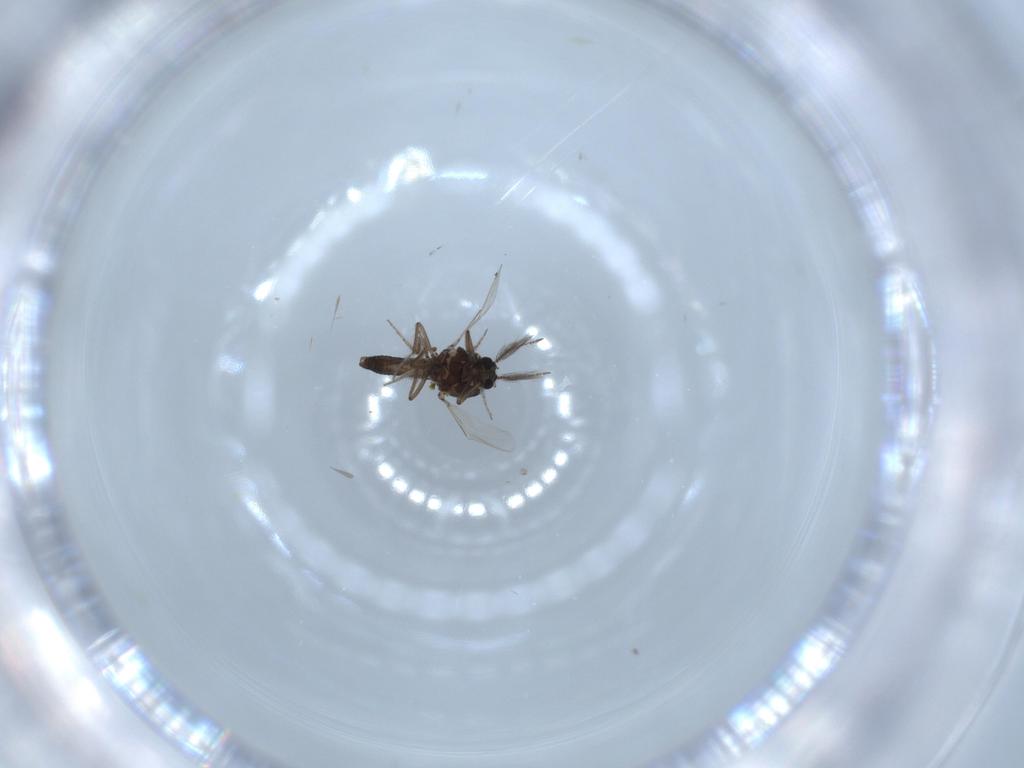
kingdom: Animalia
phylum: Arthropoda
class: Insecta
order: Diptera
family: Ceratopogonidae
